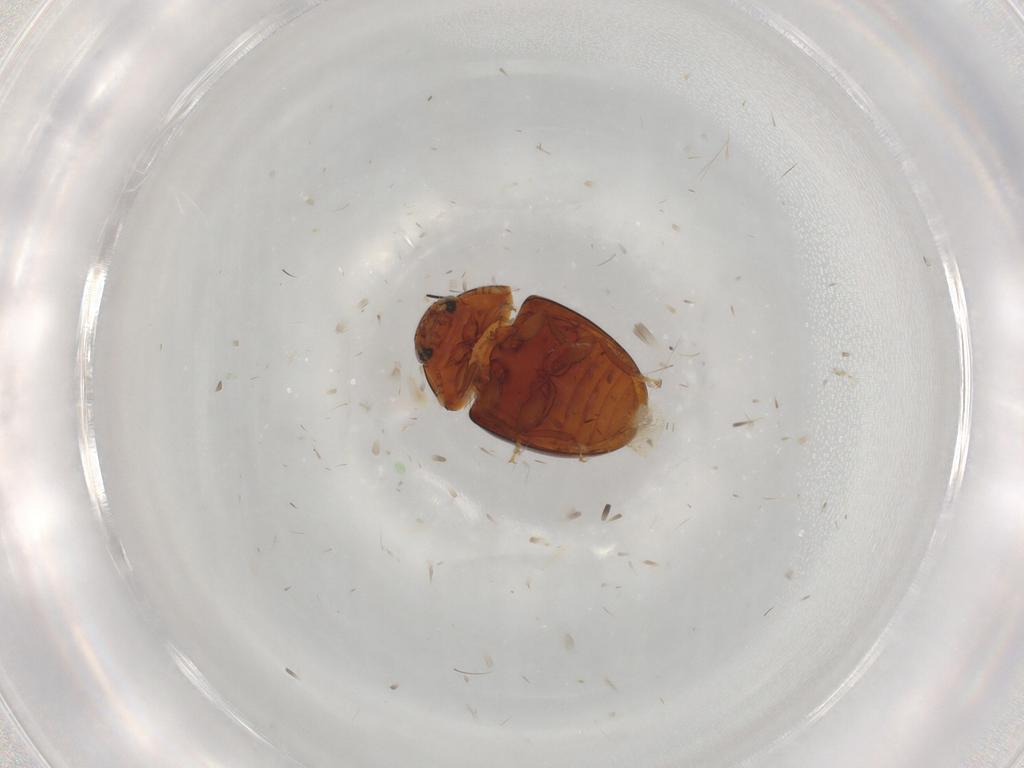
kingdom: Animalia
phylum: Arthropoda
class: Insecta
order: Coleoptera
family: Phalacridae
